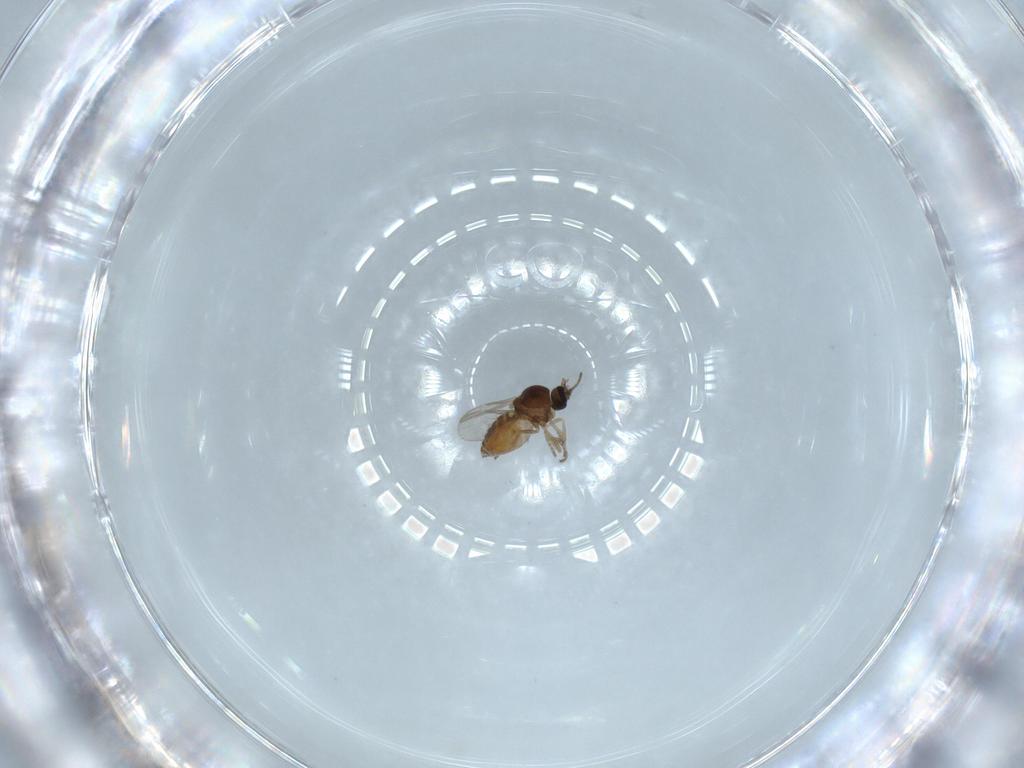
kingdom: Animalia
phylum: Arthropoda
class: Insecta
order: Diptera
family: Ceratopogonidae
